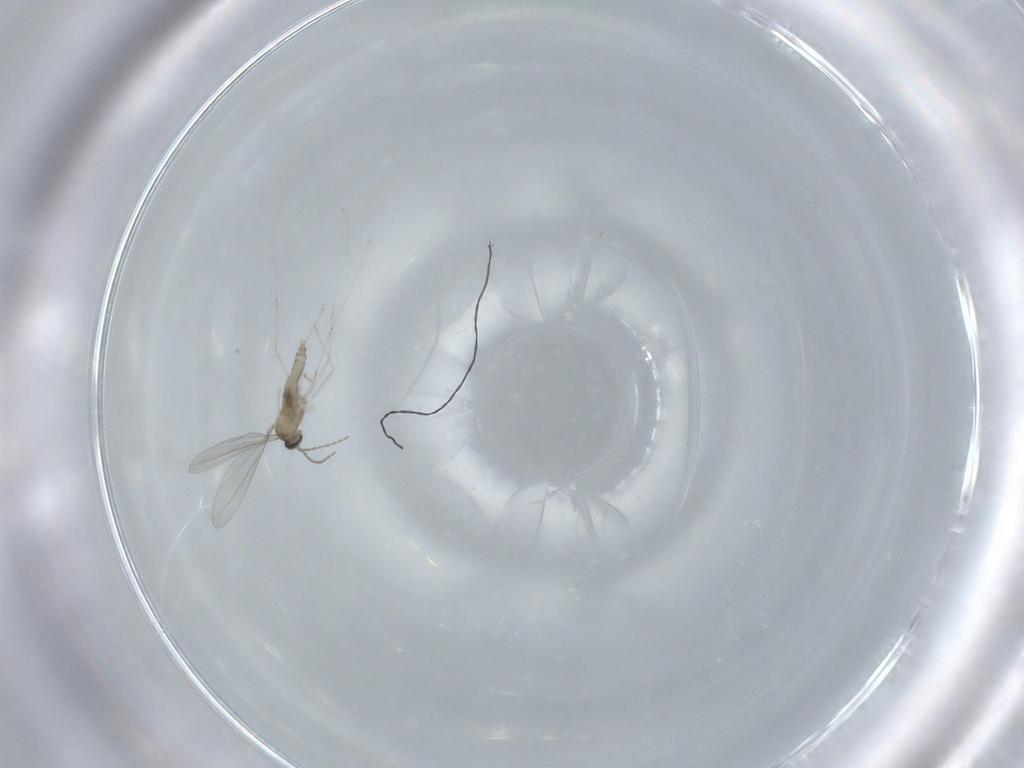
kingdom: Animalia
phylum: Arthropoda
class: Insecta
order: Diptera
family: Cecidomyiidae
